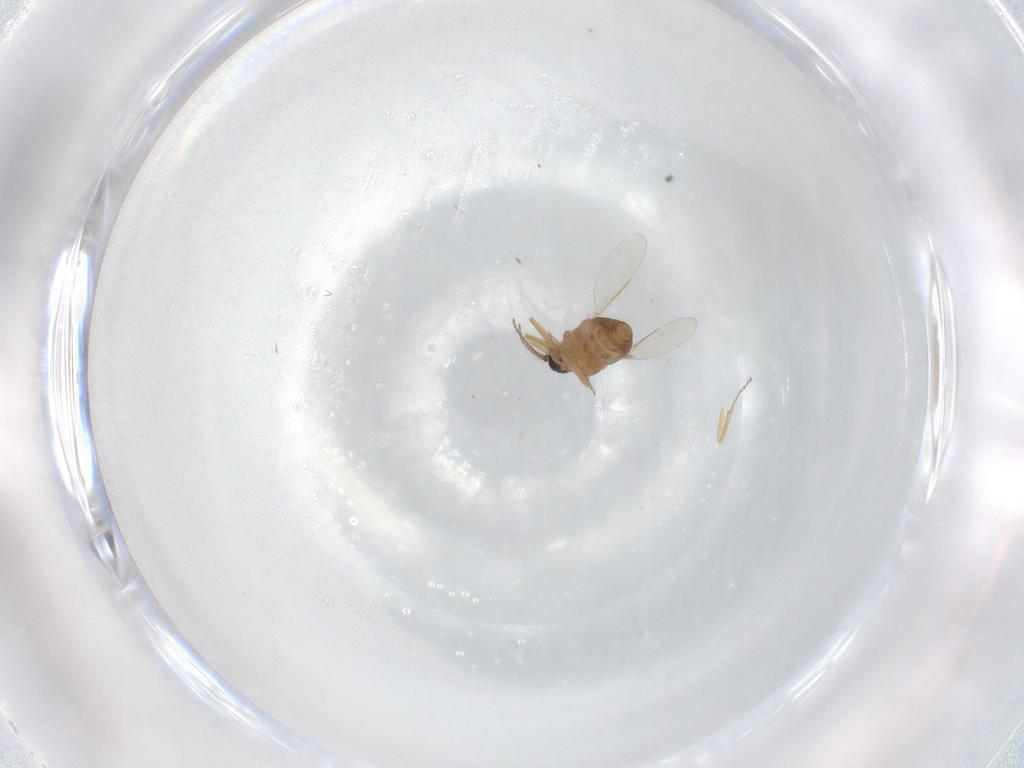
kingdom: Animalia
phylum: Arthropoda
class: Insecta
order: Diptera
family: Ceratopogonidae
